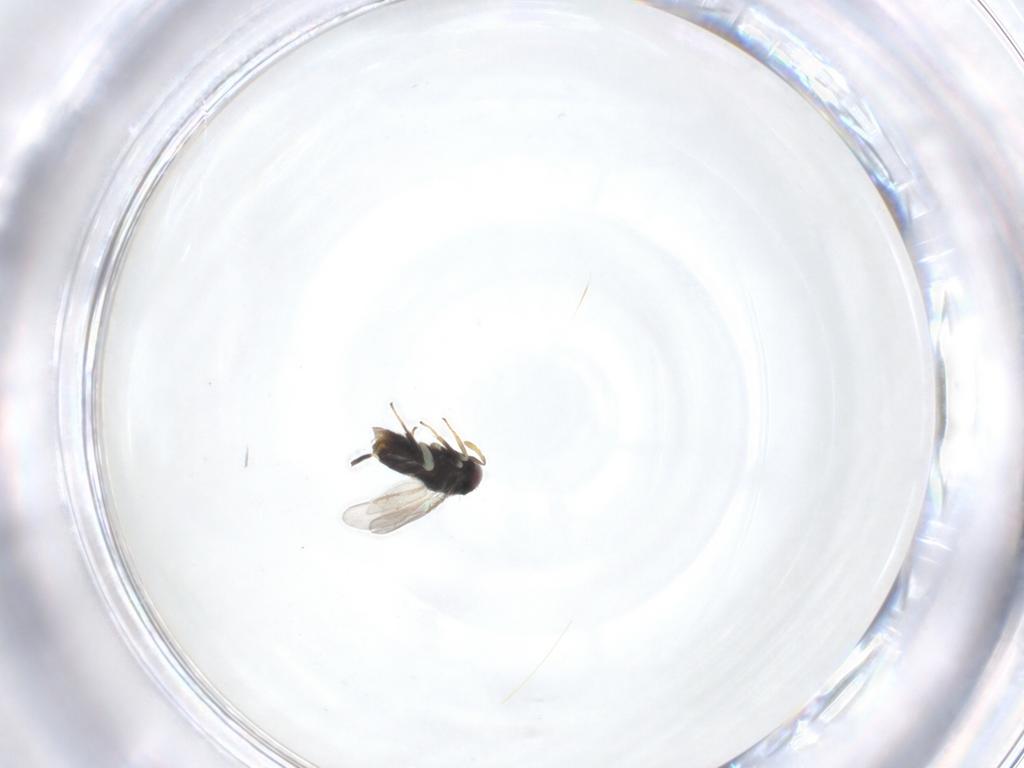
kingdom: Animalia
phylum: Arthropoda
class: Insecta
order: Hymenoptera
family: Aphelinidae
